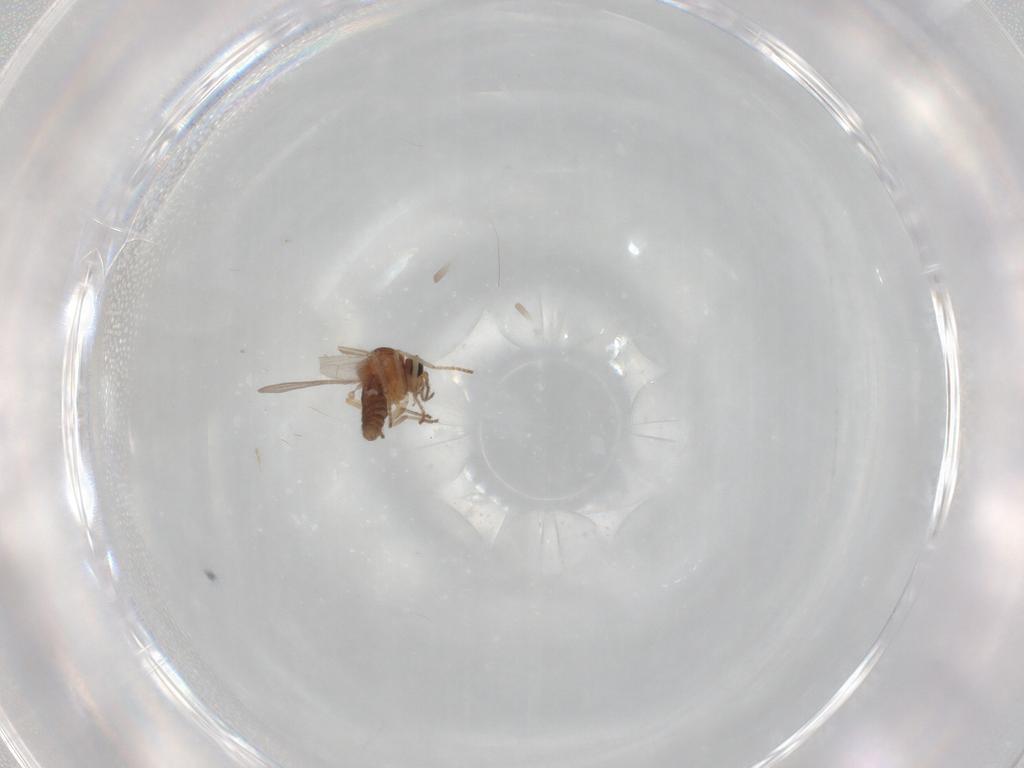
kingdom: Animalia
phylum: Arthropoda
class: Insecta
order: Diptera
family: Ceratopogonidae
